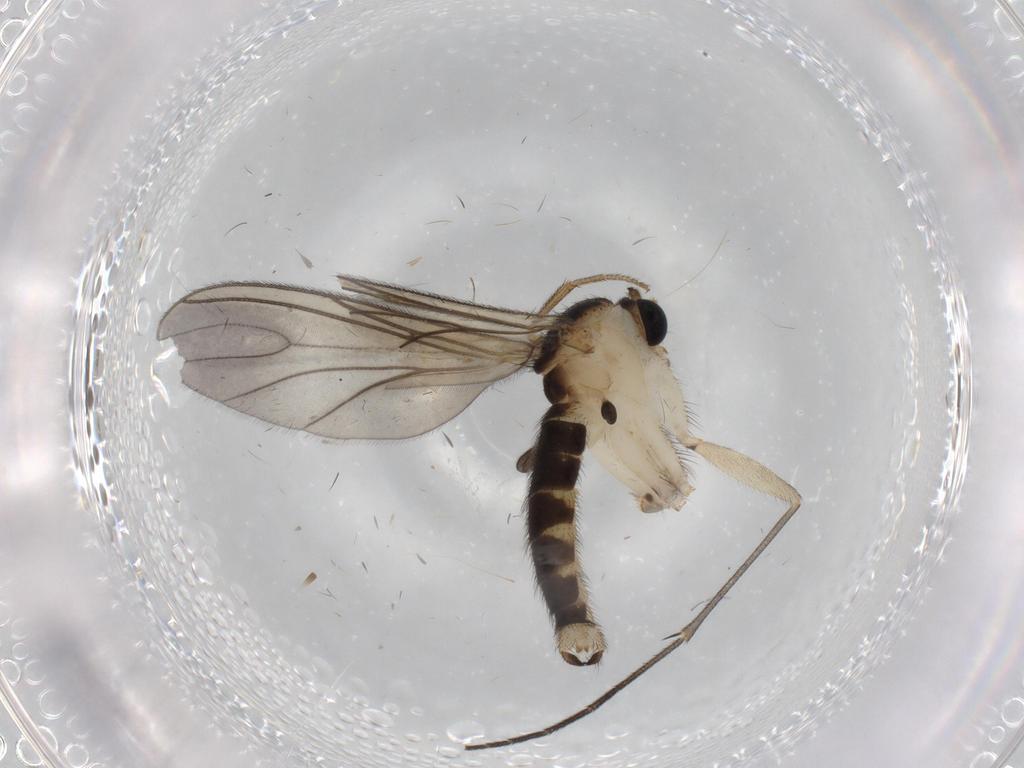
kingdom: Animalia
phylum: Arthropoda
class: Insecta
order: Diptera
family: Sciaridae
